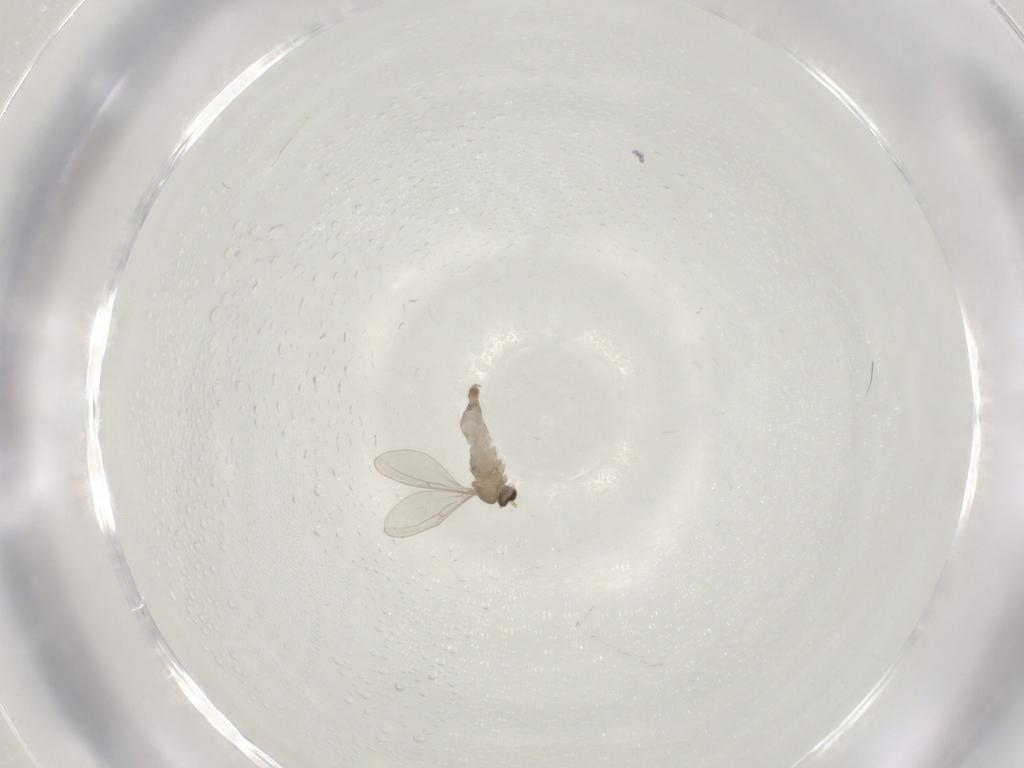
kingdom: Animalia
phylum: Arthropoda
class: Insecta
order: Diptera
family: Cecidomyiidae
